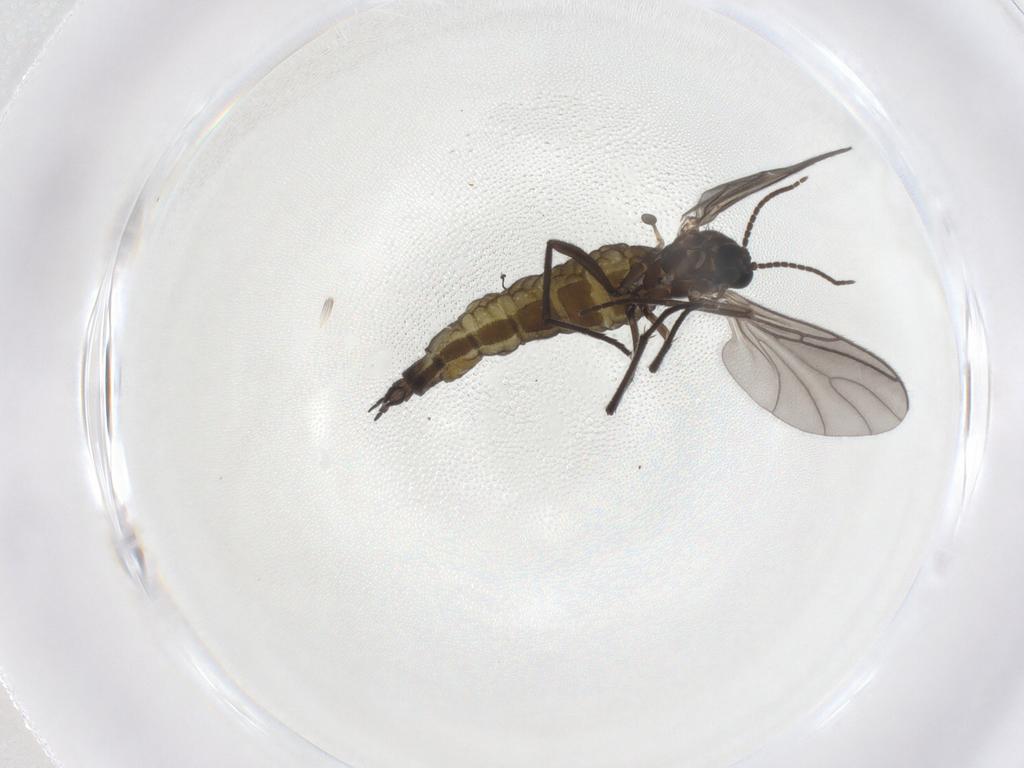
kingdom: Animalia
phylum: Arthropoda
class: Insecta
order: Diptera
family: Sciaridae
